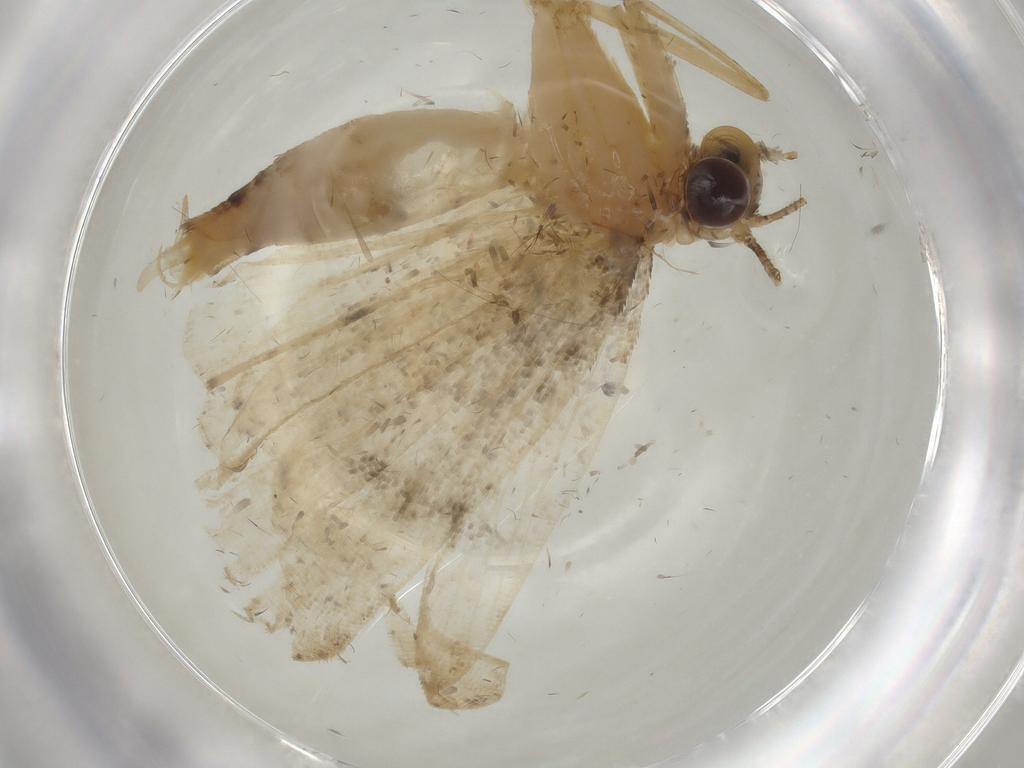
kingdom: Animalia
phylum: Arthropoda
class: Insecta
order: Lepidoptera
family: Erebidae
